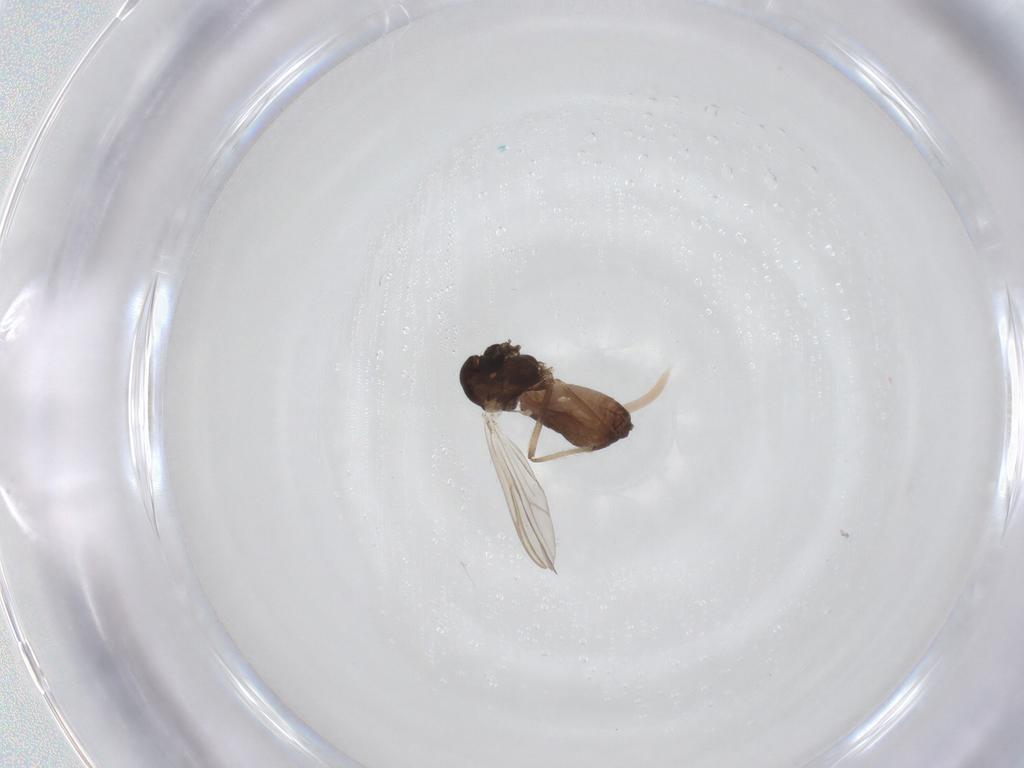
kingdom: Animalia
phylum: Arthropoda
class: Insecta
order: Diptera
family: Chironomidae
